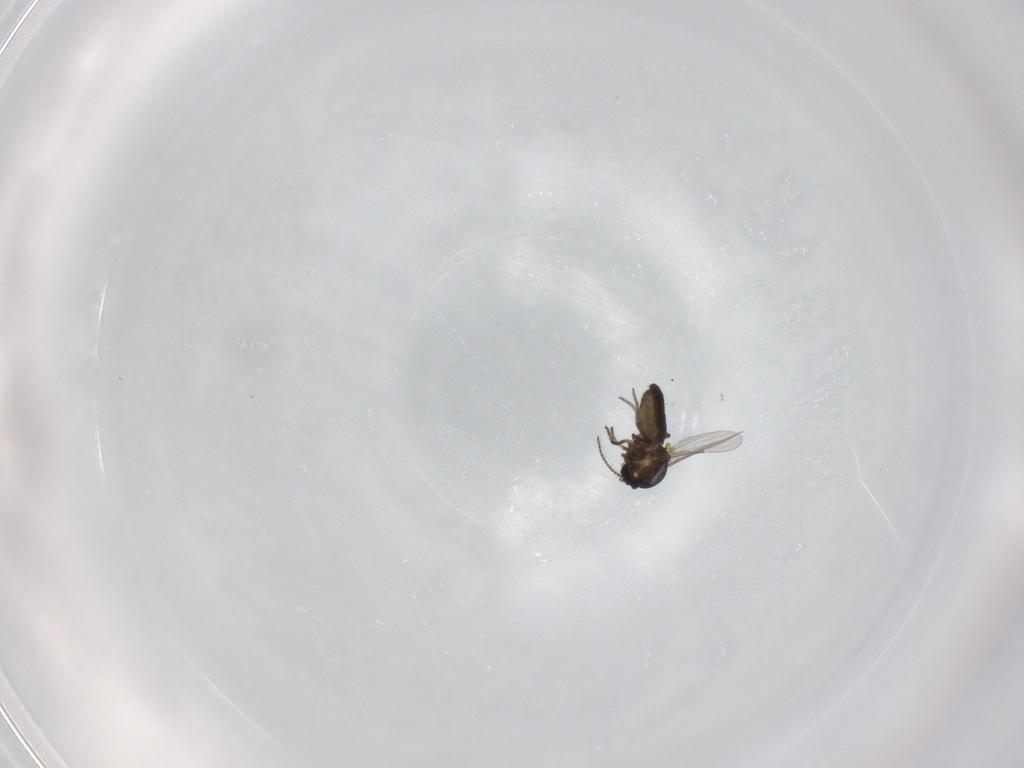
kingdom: Animalia
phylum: Arthropoda
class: Insecta
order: Diptera
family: Ceratopogonidae
